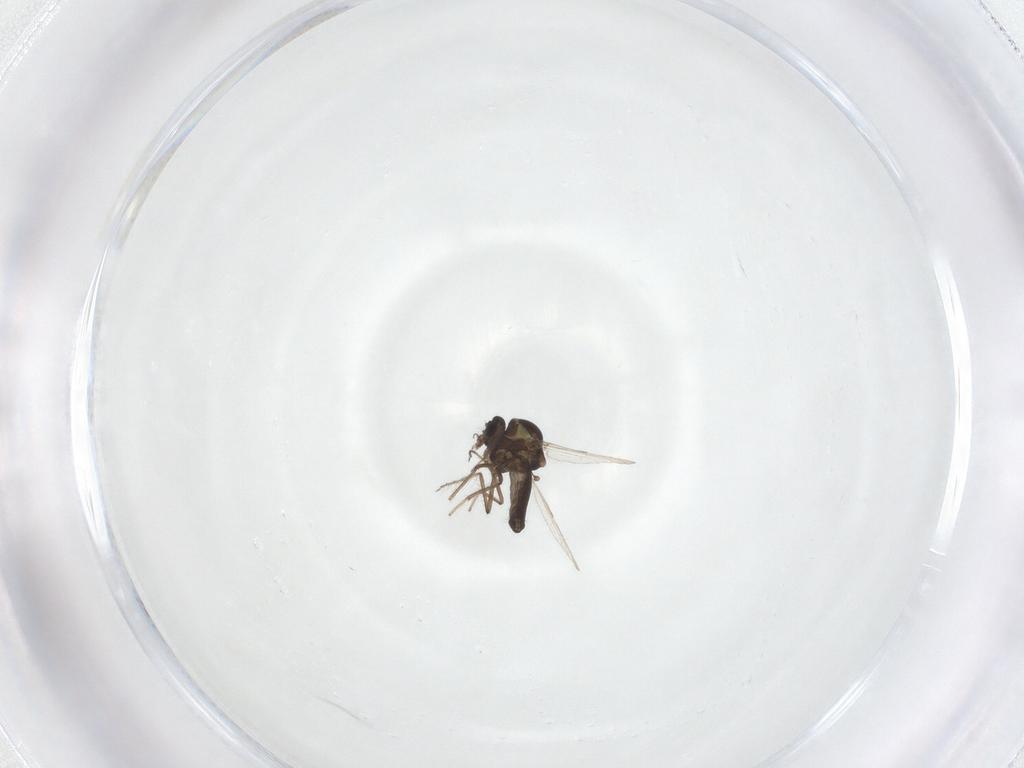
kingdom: Animalia
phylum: Arthropoda
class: Insecta
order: Diptera
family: Ceratopogonidae
